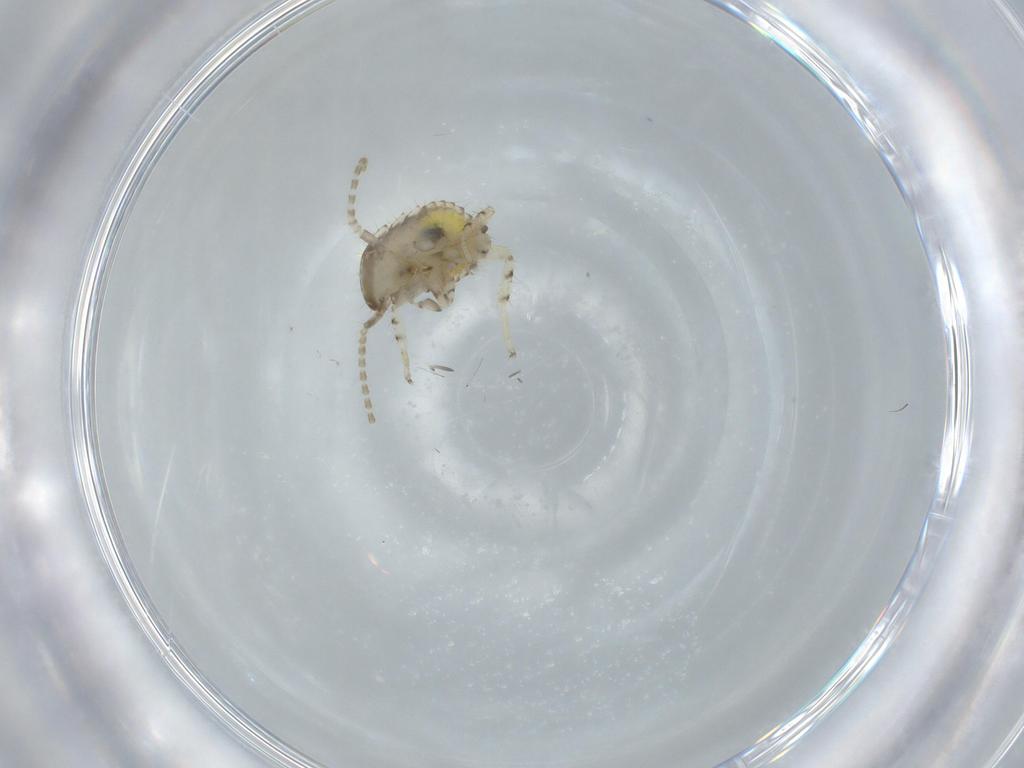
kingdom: Animalia
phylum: Arthropoda
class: Insecta
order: Blattodea
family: Ectobiidae
